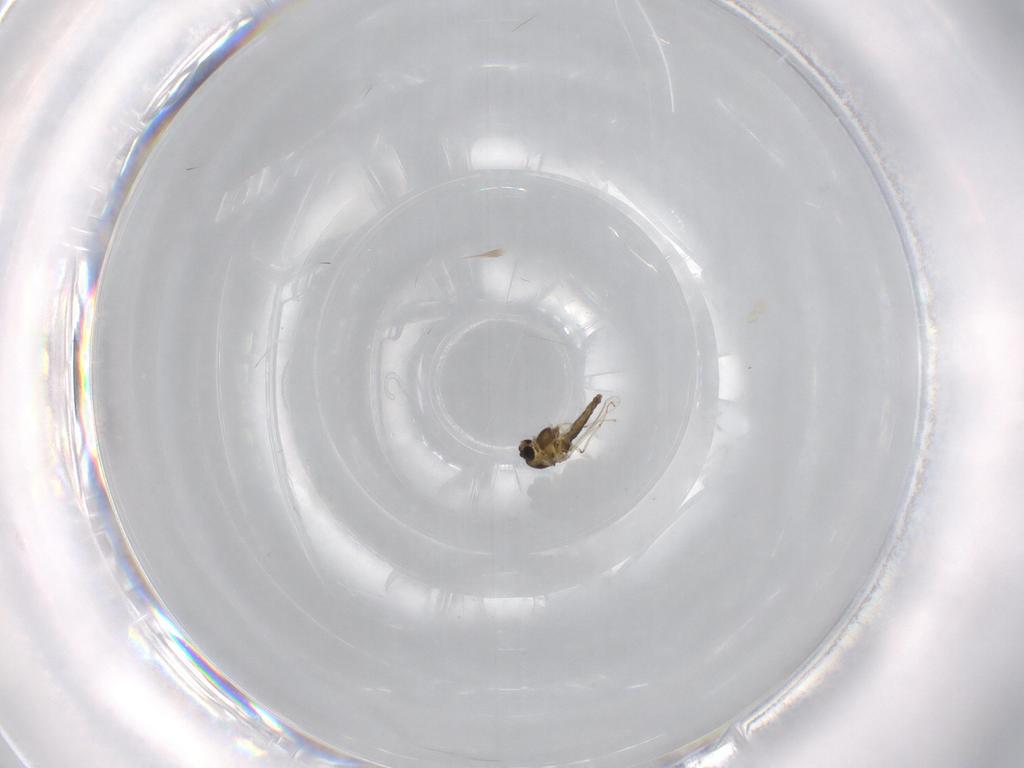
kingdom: Animalia
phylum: Arthropoda
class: Insecta
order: Diptera
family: Chironomidae
